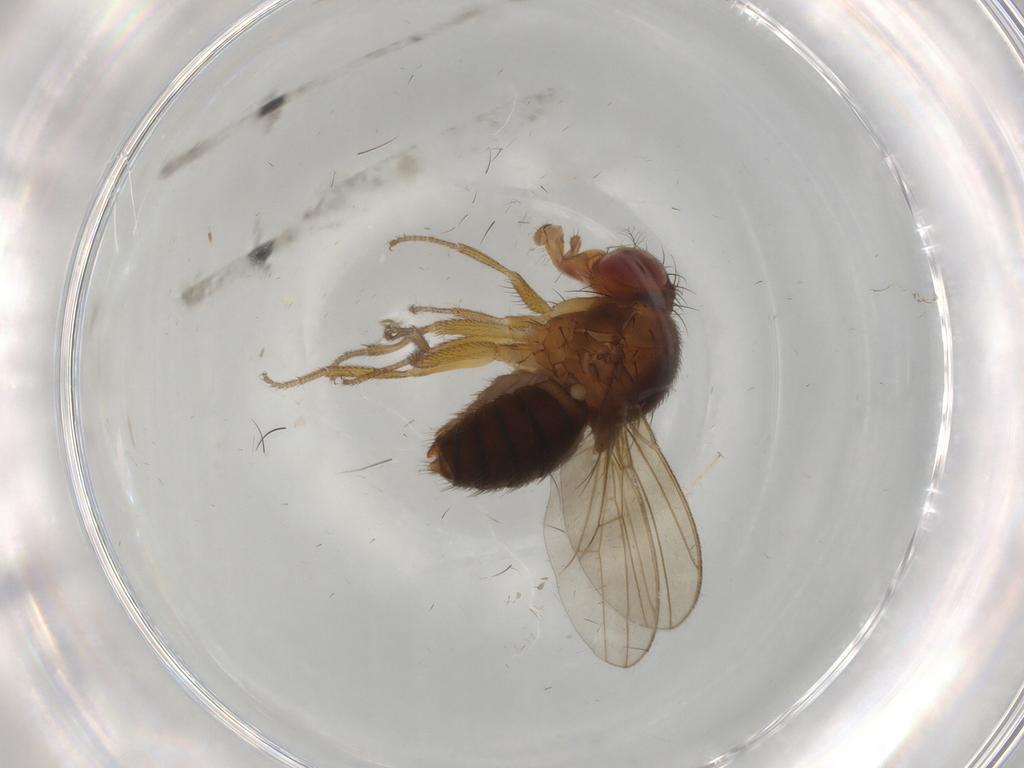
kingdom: Animalia
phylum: Arthropoda
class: Insecta
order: Diptera
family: Drosophilidae
